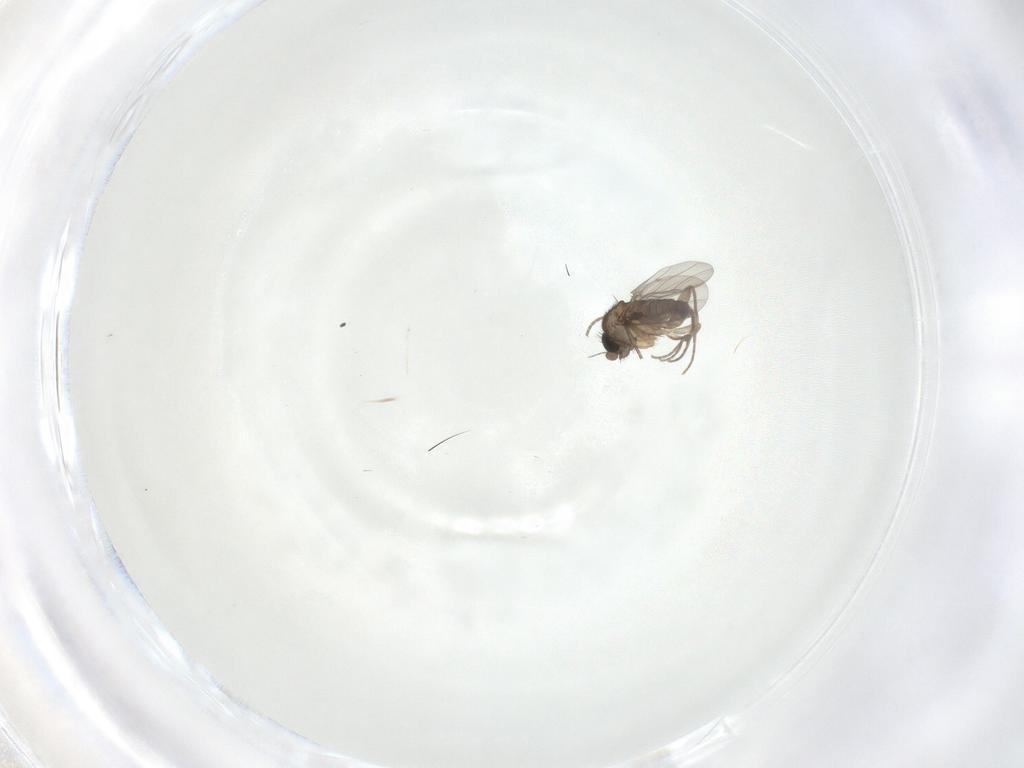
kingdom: Animalia
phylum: Arthropoda
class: Insecta
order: Diptera
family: Phoridae
